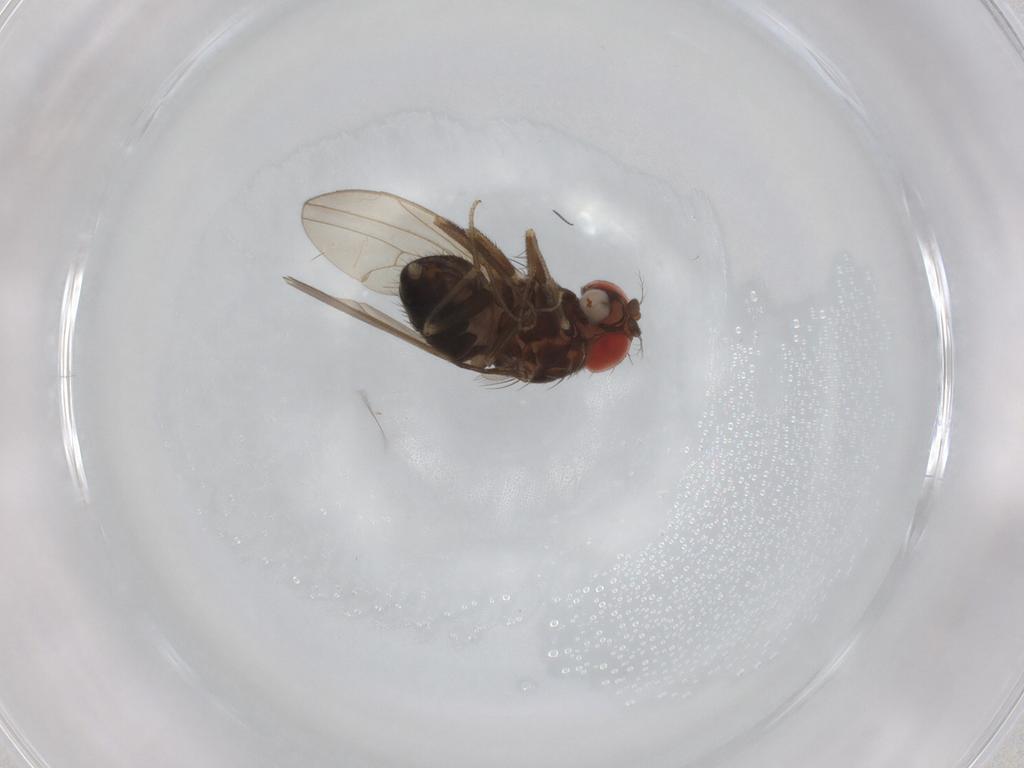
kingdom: Animalia
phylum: Arthropoda
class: Insecta
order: Diptera
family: Drosophilidae
